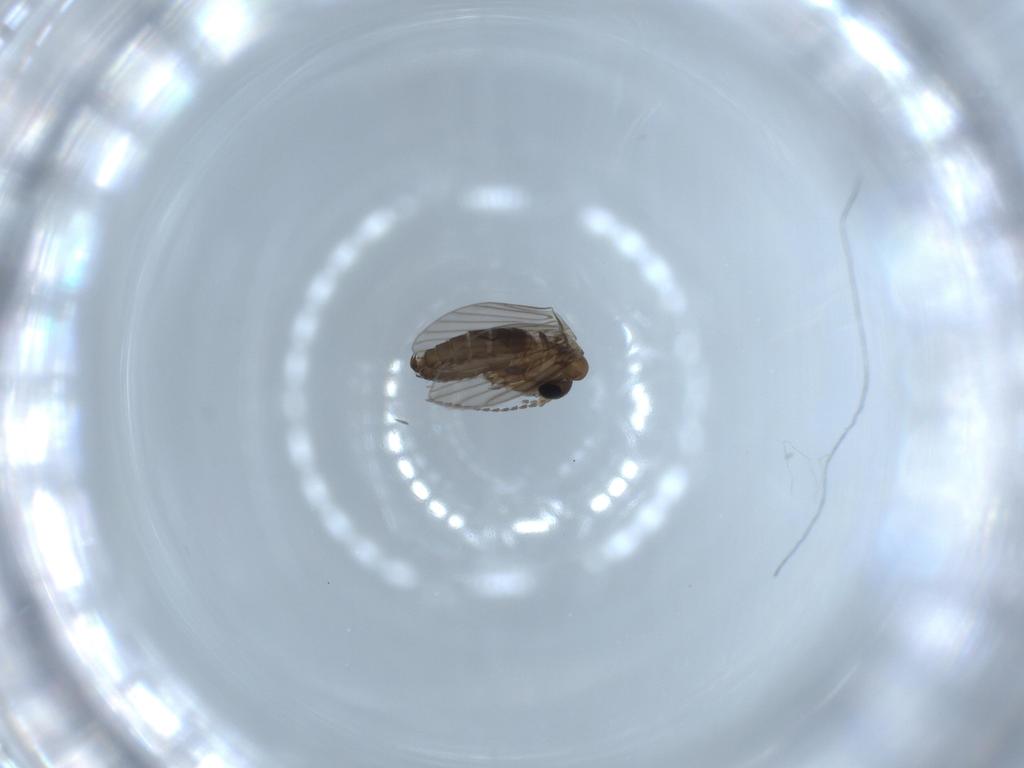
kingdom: Animalia
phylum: Arthropoda
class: Insecta
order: Diptera
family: Psychodidae
